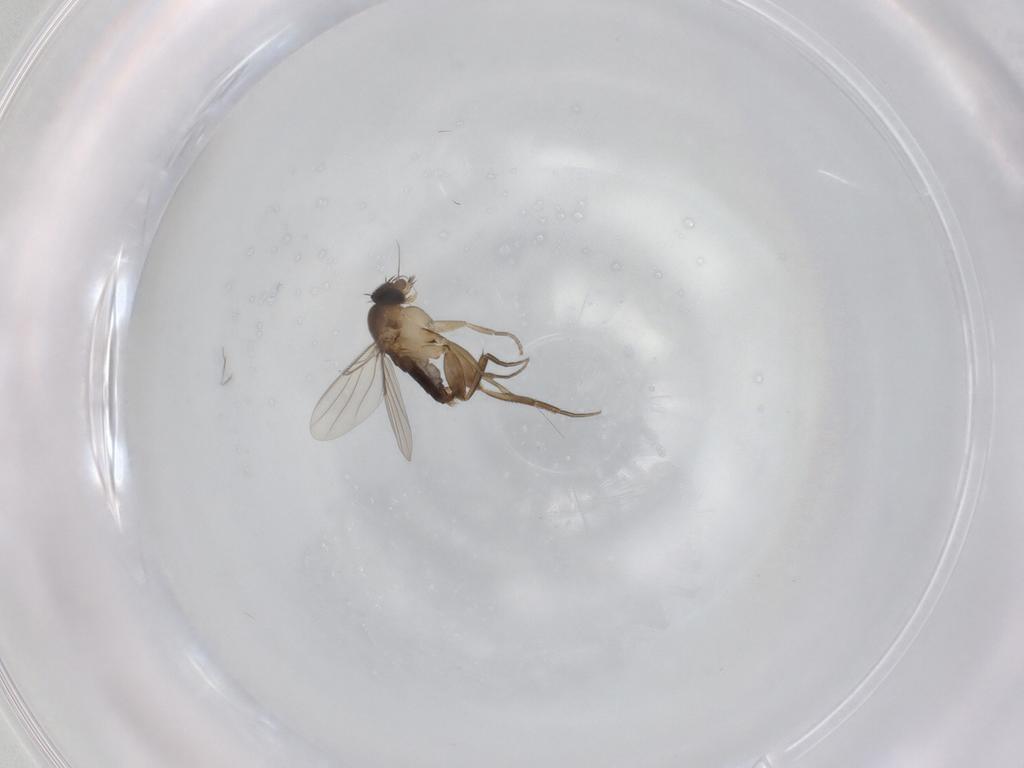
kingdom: Animalia
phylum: Arthropoda
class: Insecta
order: Diptera
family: Phoridae
